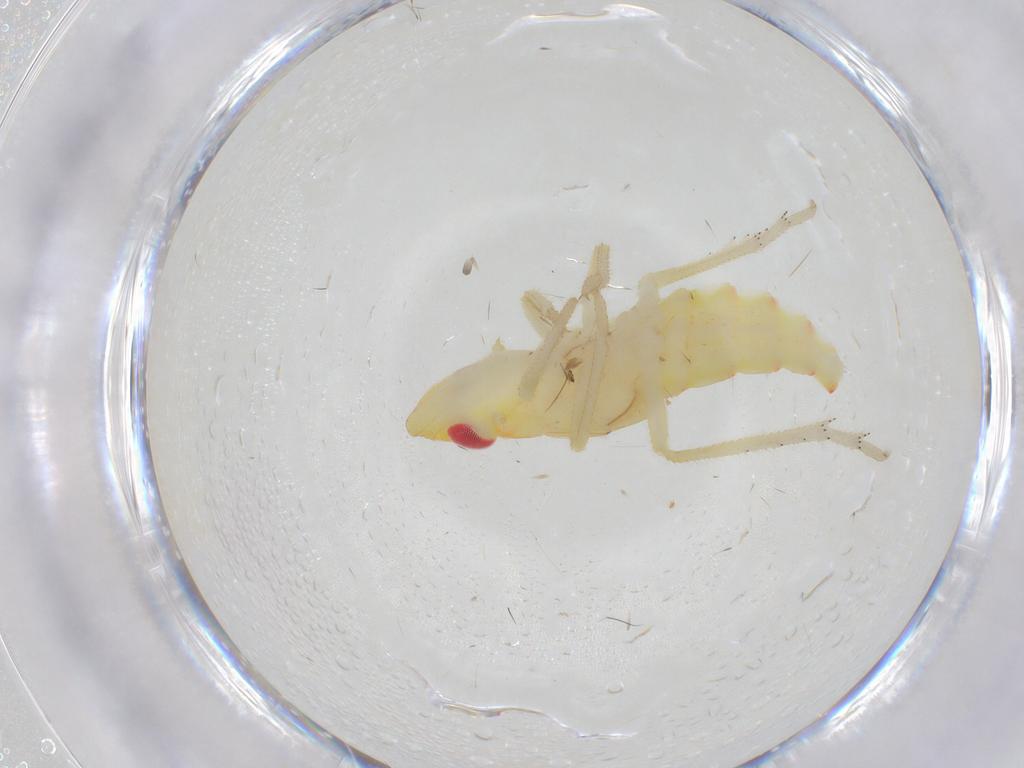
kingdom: Animalia
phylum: Arthropoda
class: Insecta
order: Hemiptera
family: Tropiduchidae
